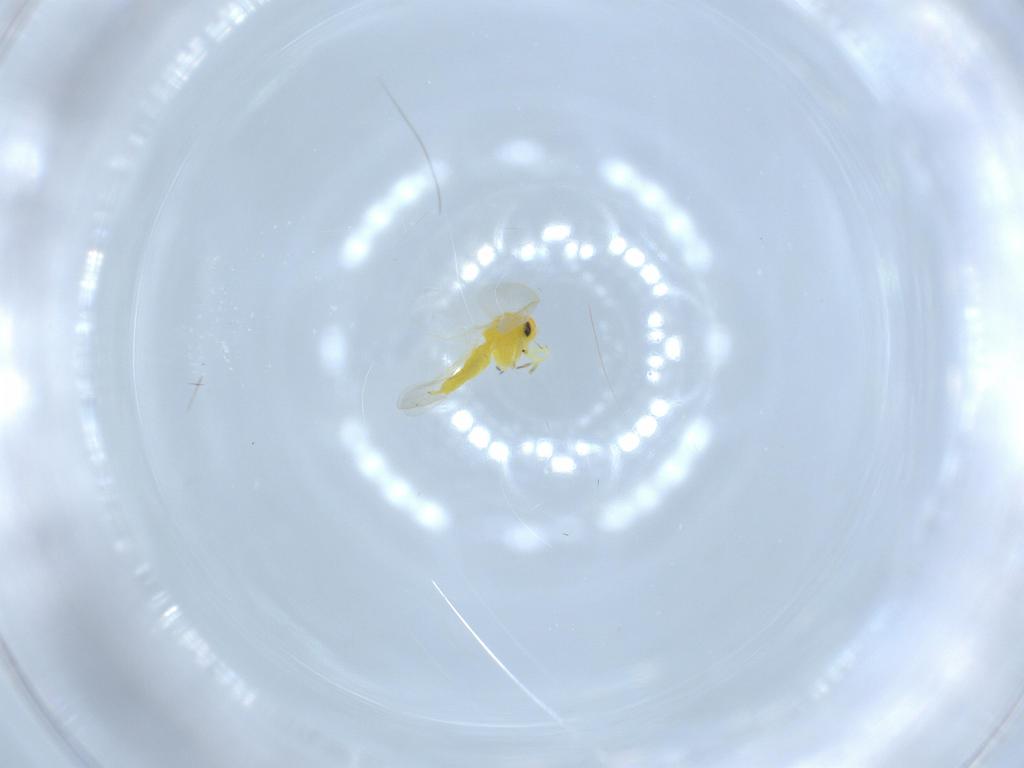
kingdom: Animalia
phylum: Arthropoda
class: Insecta
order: Hemiptera
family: Aleyrodidae
